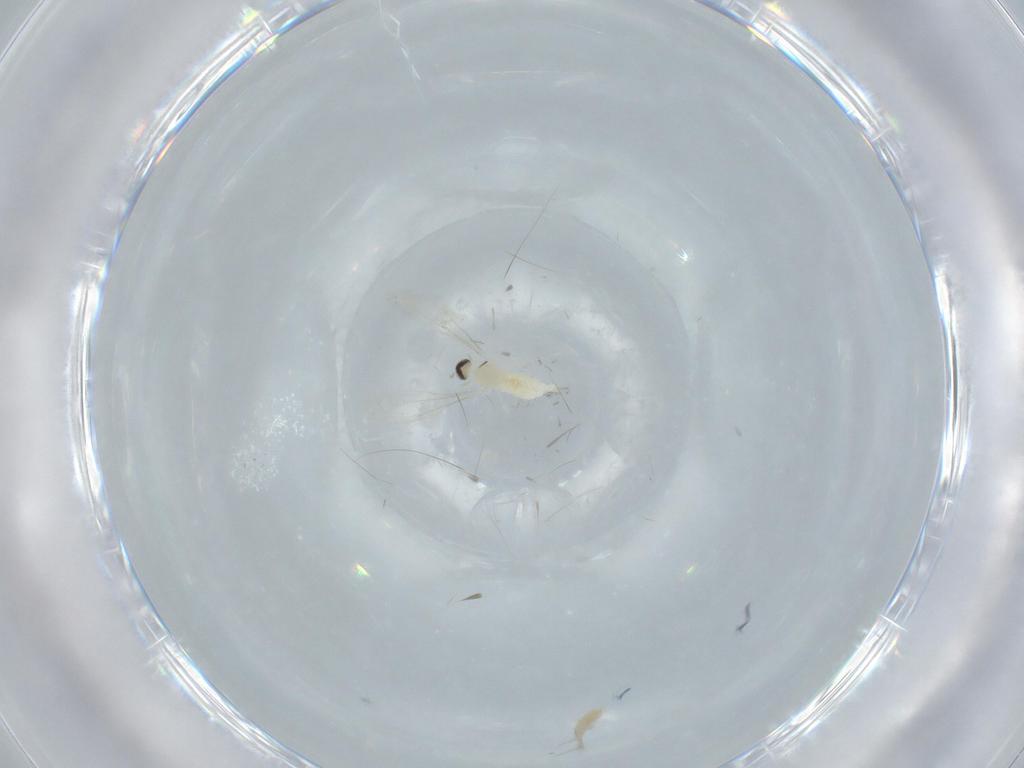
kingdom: Animalia
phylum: Arthropoda
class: Insecta
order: Diptera
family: Cecidomyiidae
